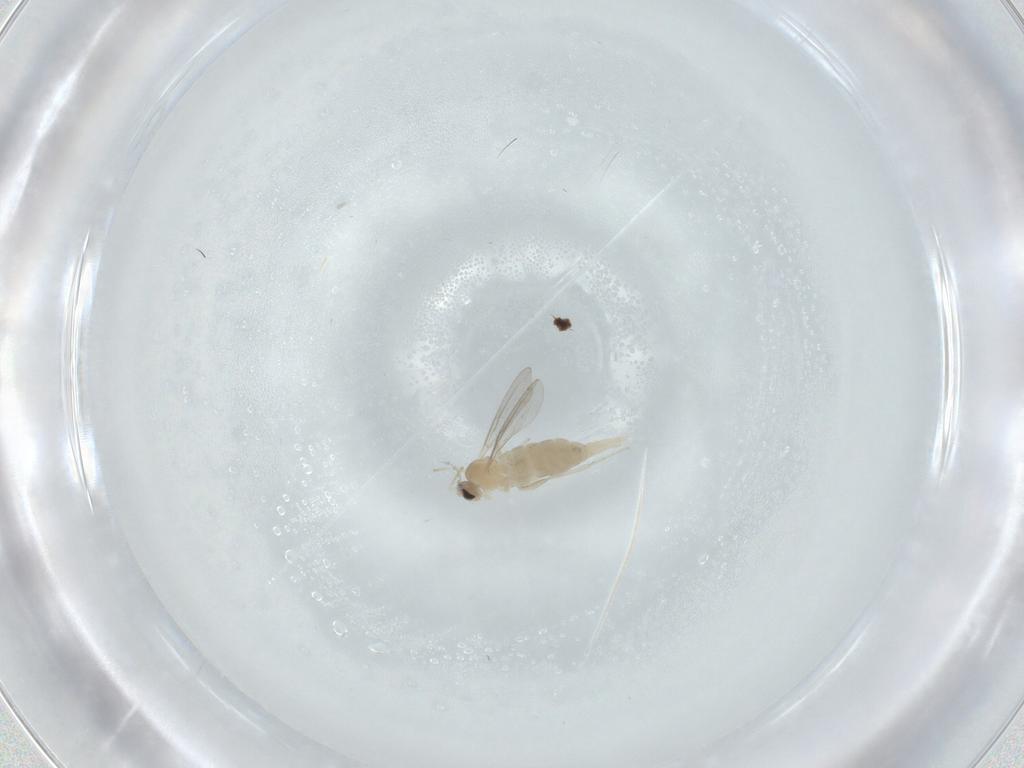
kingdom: Animalia
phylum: Arthropoda
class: Insecta
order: Diptera
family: Cecidomyiidae
